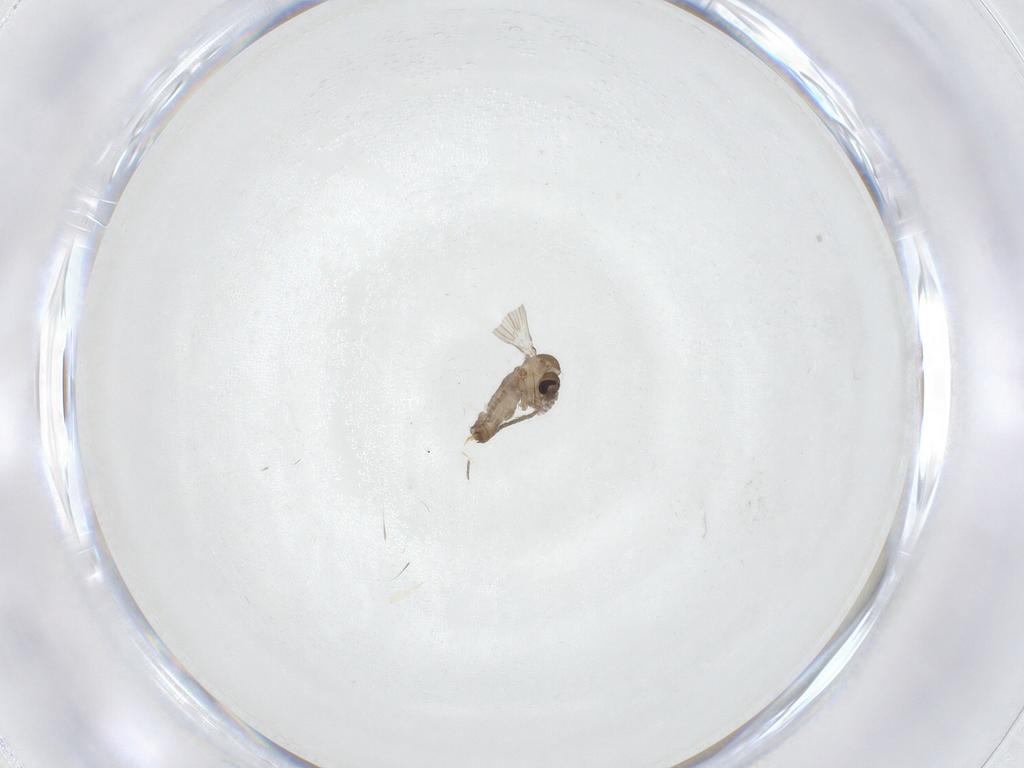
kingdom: Animalia
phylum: Arthropoda
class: Insecta
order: Diptera
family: Psychodidae
